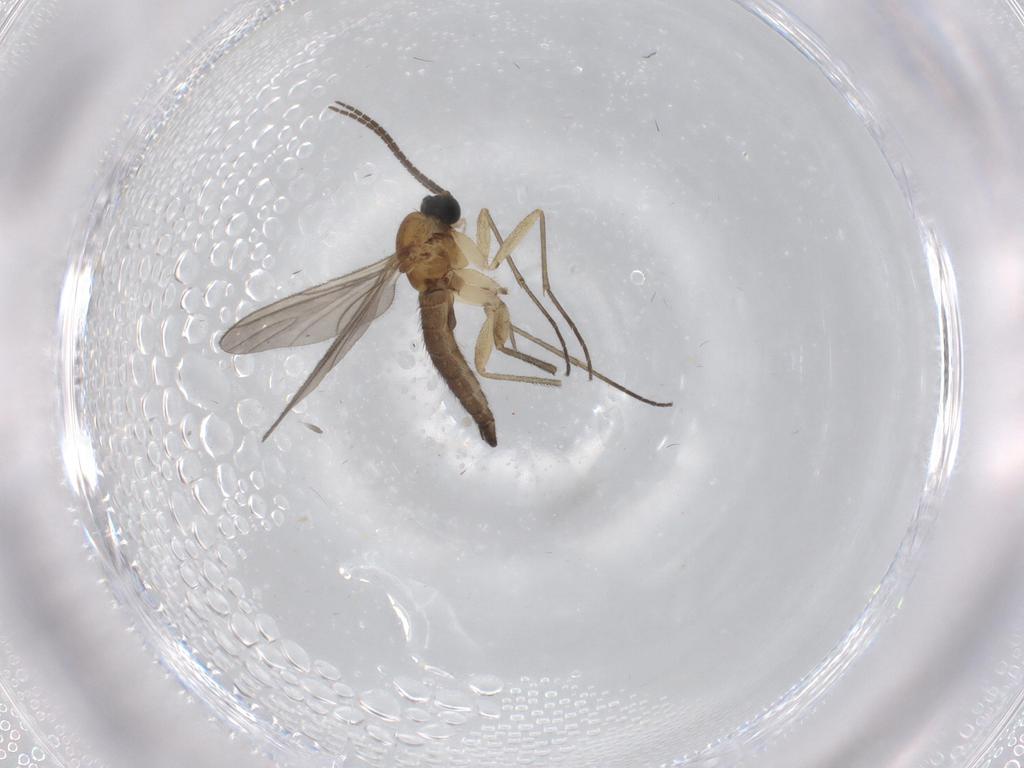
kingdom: Animalia
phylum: Arthropoda
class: Insecta
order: Diptera
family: Phoridae
